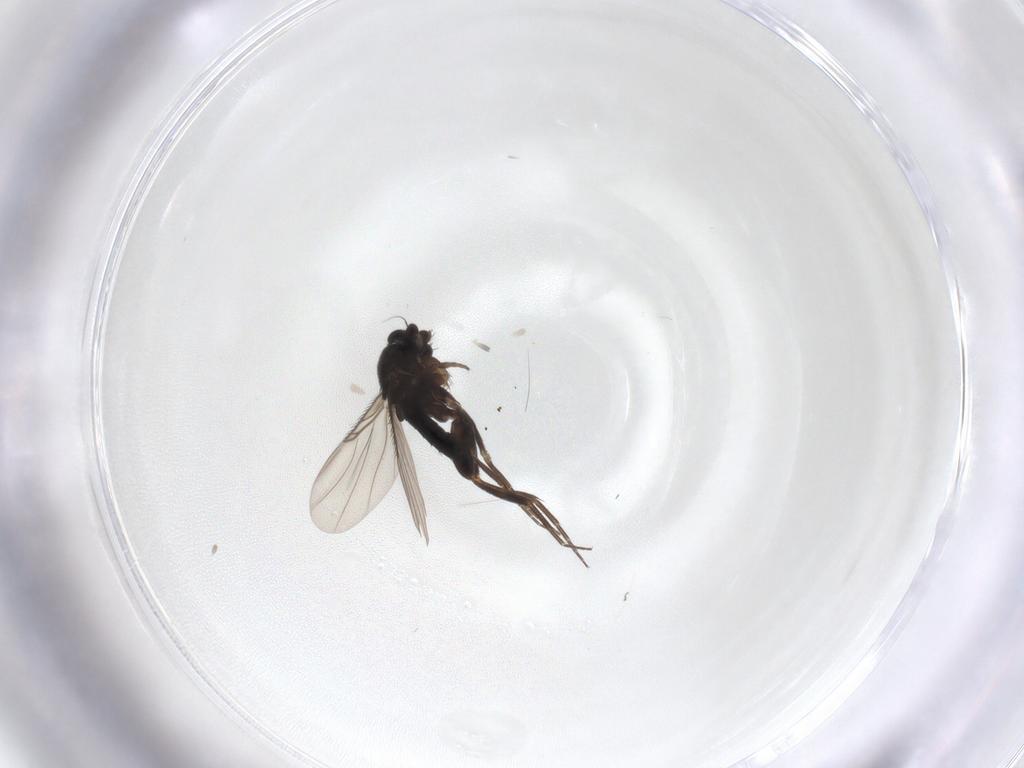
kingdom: Animalia
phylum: Arthropoda
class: Insecta
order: Diptera
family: Phoridae
